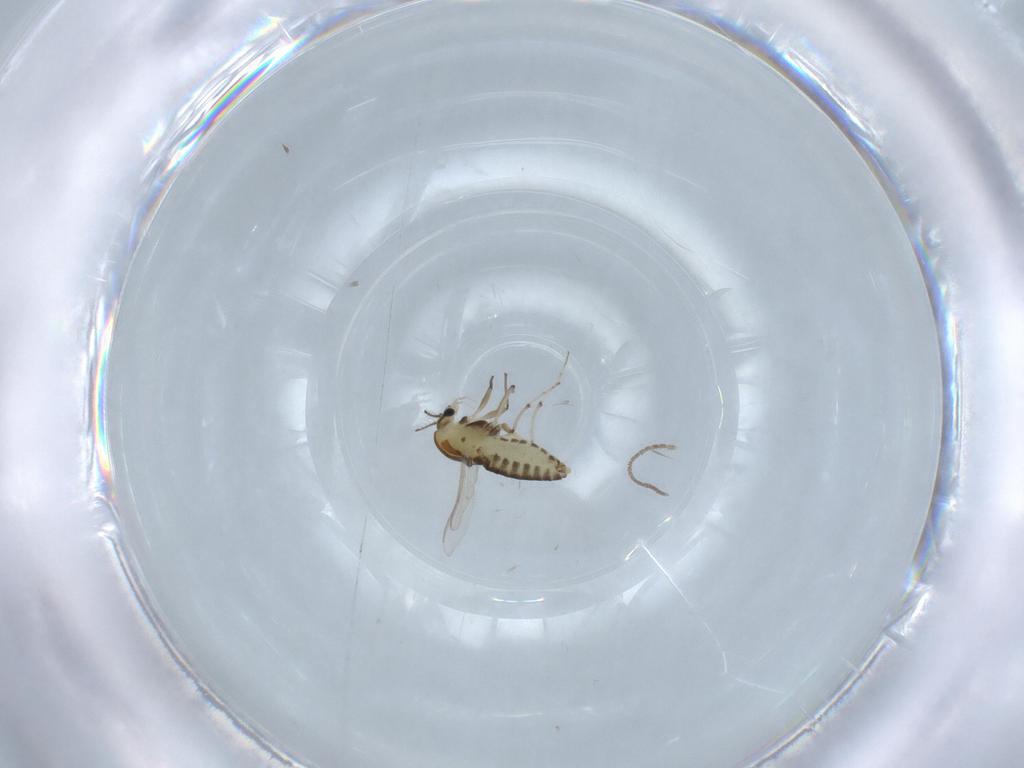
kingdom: Animalia
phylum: Arthropoda
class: Insecta
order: Diptera
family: Chironomidae
